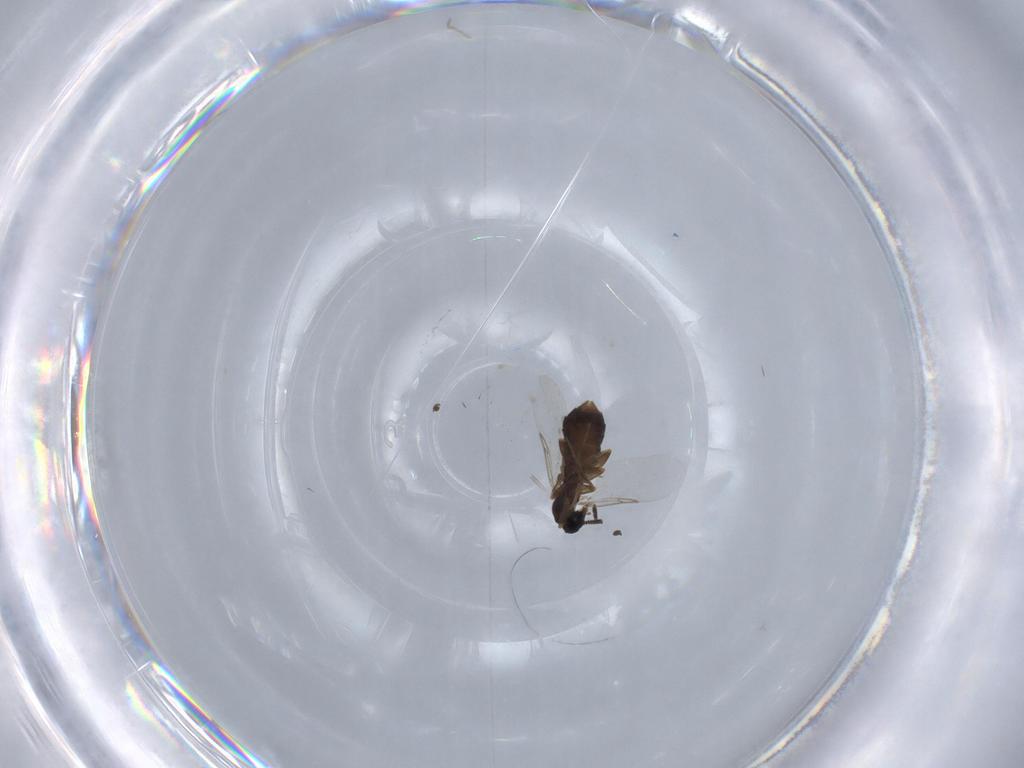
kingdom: Animalia
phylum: Arthropoda
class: Insecta
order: Diptera
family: Scatopsidae
